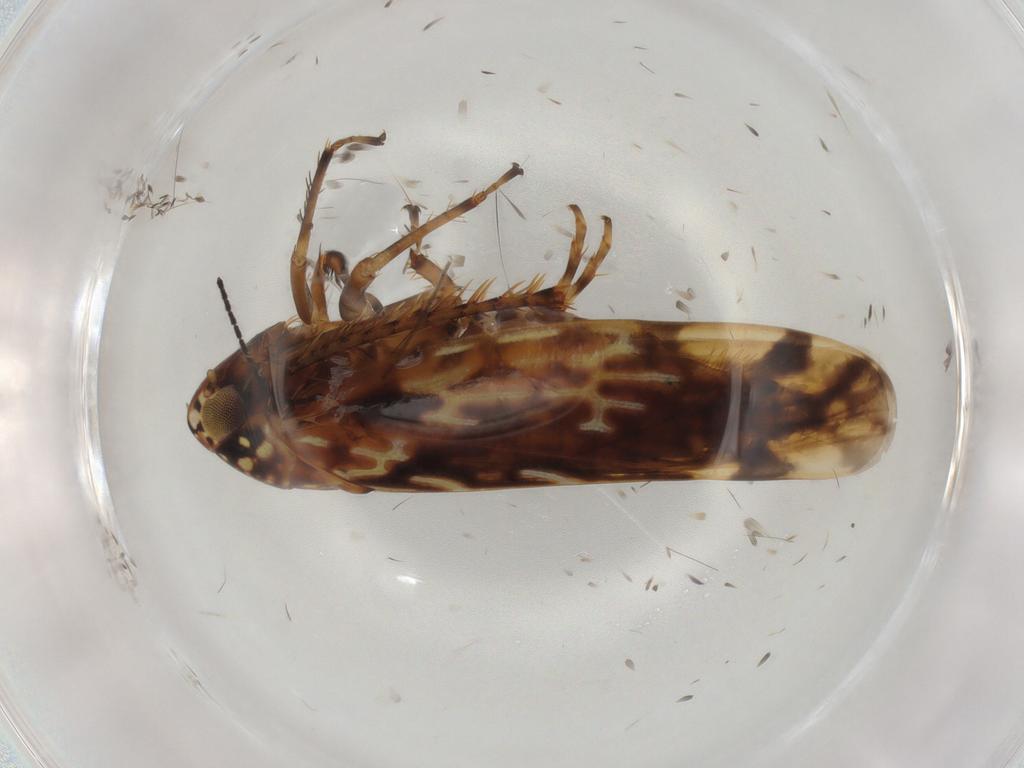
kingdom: Animalia
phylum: Arthropoda
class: Insecta
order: Hemiptera
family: Cicadellidae
